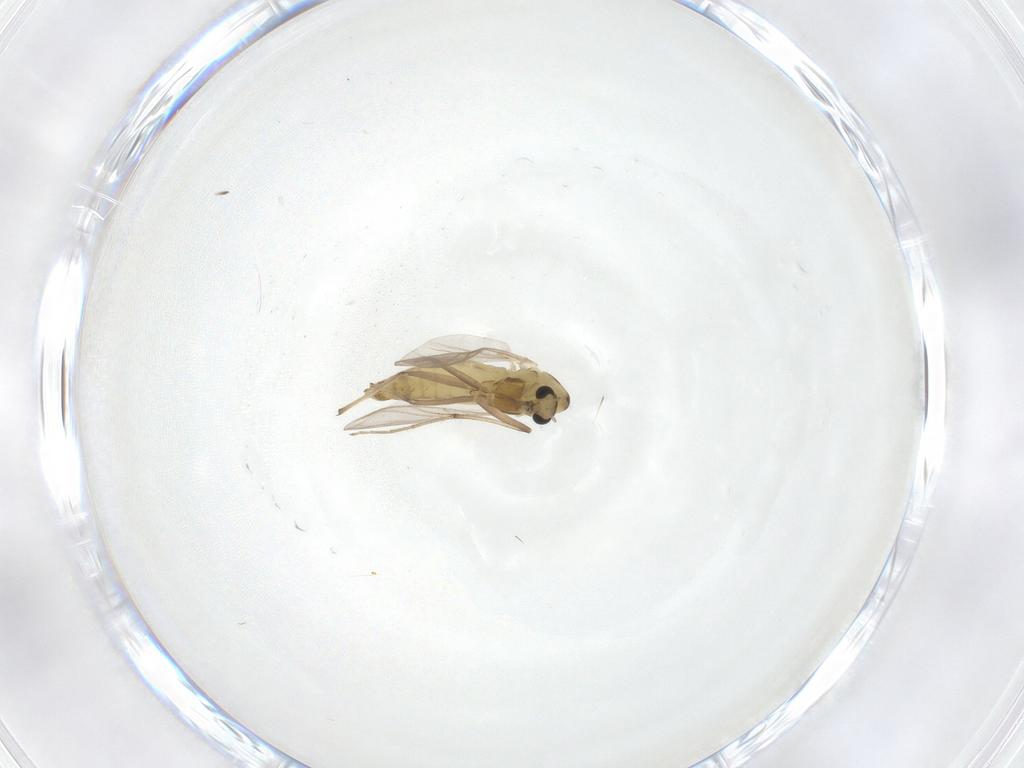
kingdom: Animalia
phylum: Arthropoda
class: Insecta
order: Diptera
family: Chironomidae
